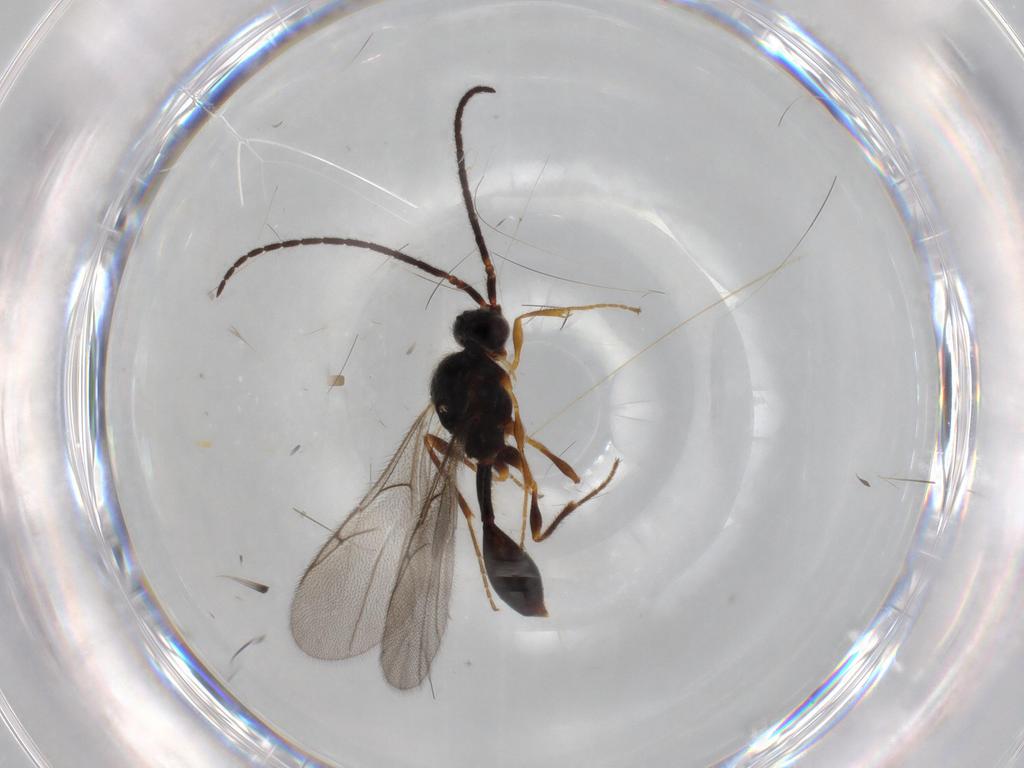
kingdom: Animalia
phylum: Arthropoda
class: Insecta
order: Hymenoptera
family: Diapriidae
